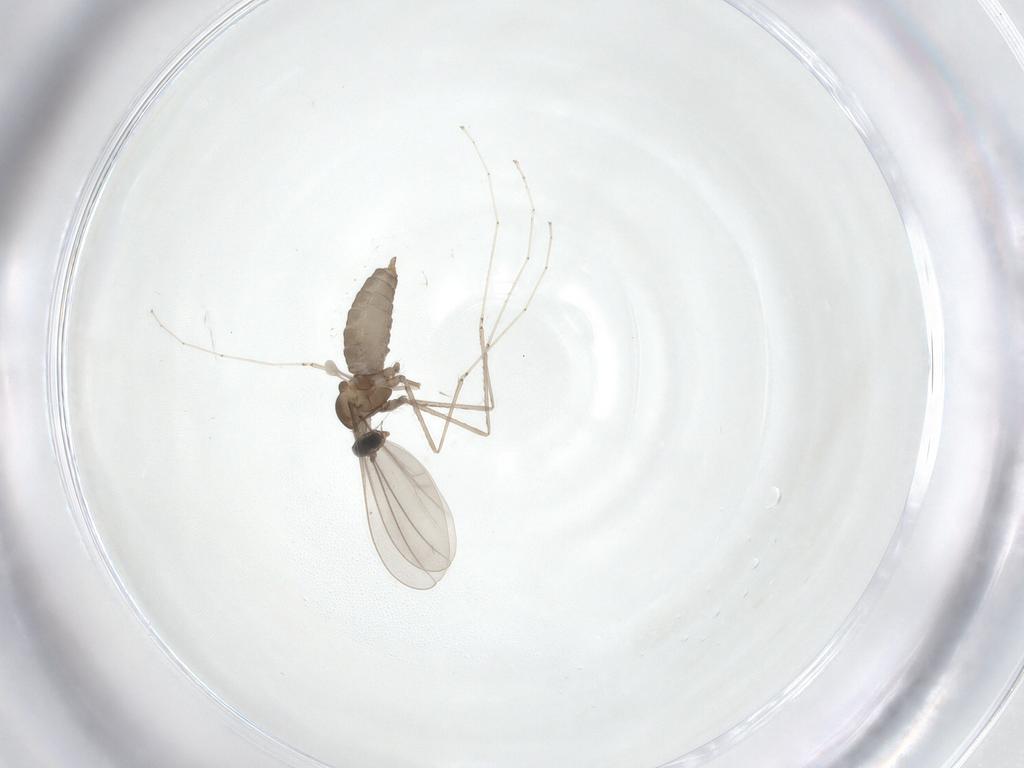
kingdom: Animalia
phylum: Arthropoda
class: Insecta
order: Diptera
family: Cecidomyiidae
